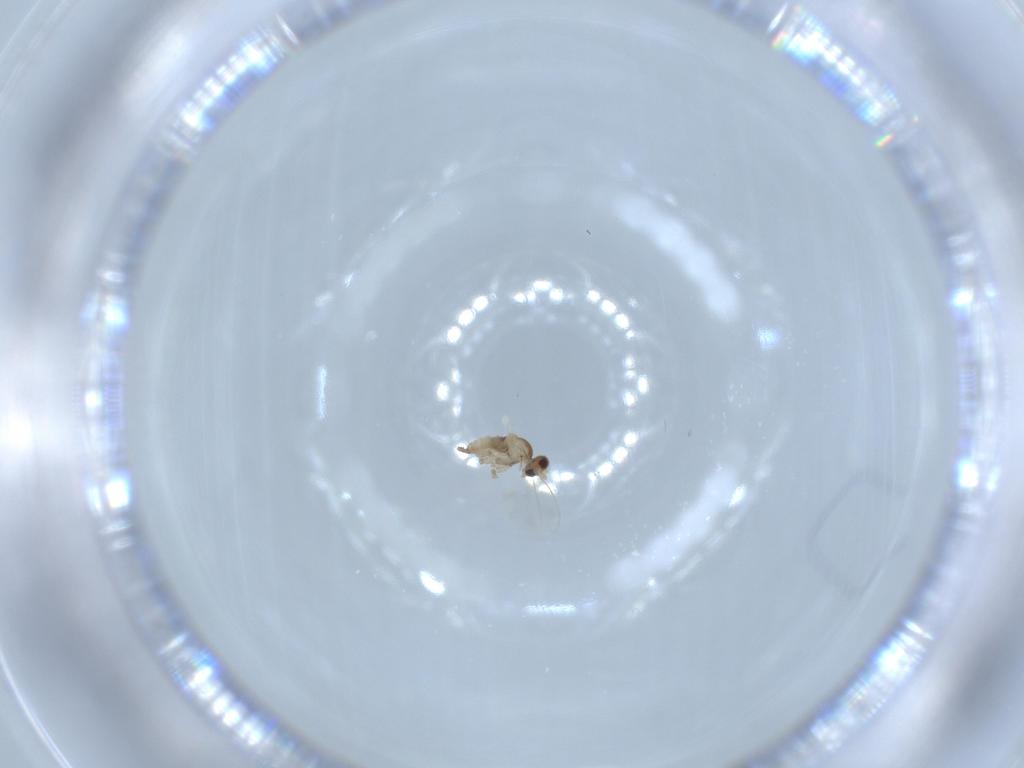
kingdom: Animalia
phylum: Arthropoda
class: Insecta
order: Diptera
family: Cecidomyiidae
